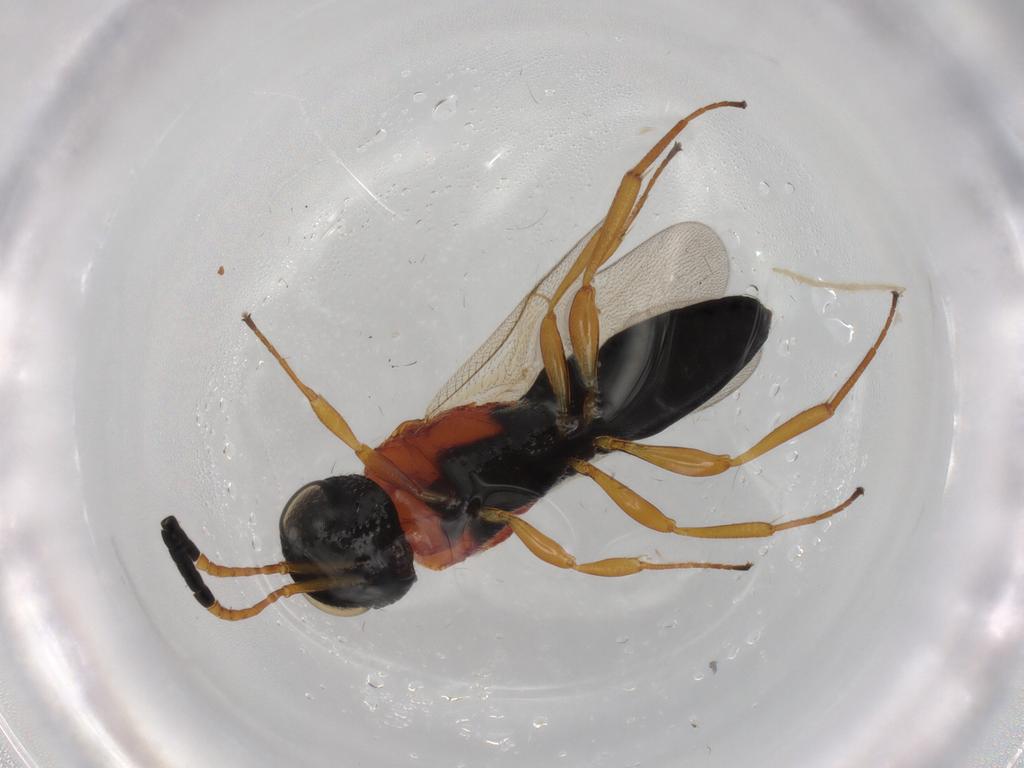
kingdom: Animalia
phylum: Arthropoda
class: Insecta
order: Hymenoptera
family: Scelionidae
